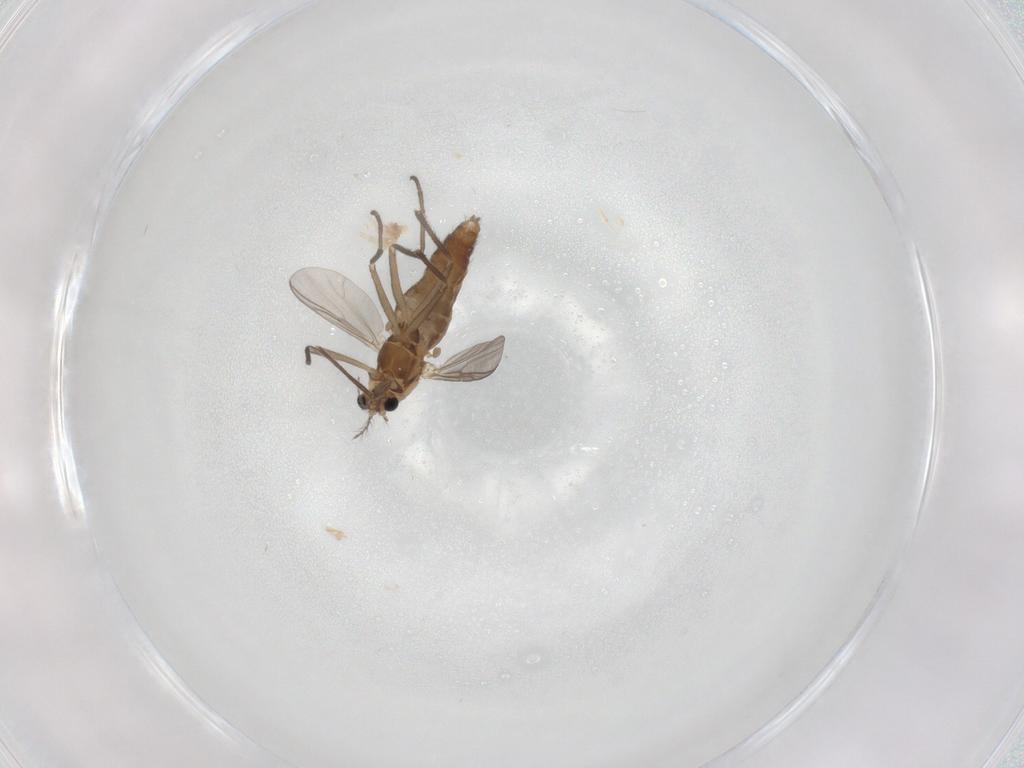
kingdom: Animalia
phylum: Arthropoda
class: Insecta
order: Diptera
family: Chironomidae
